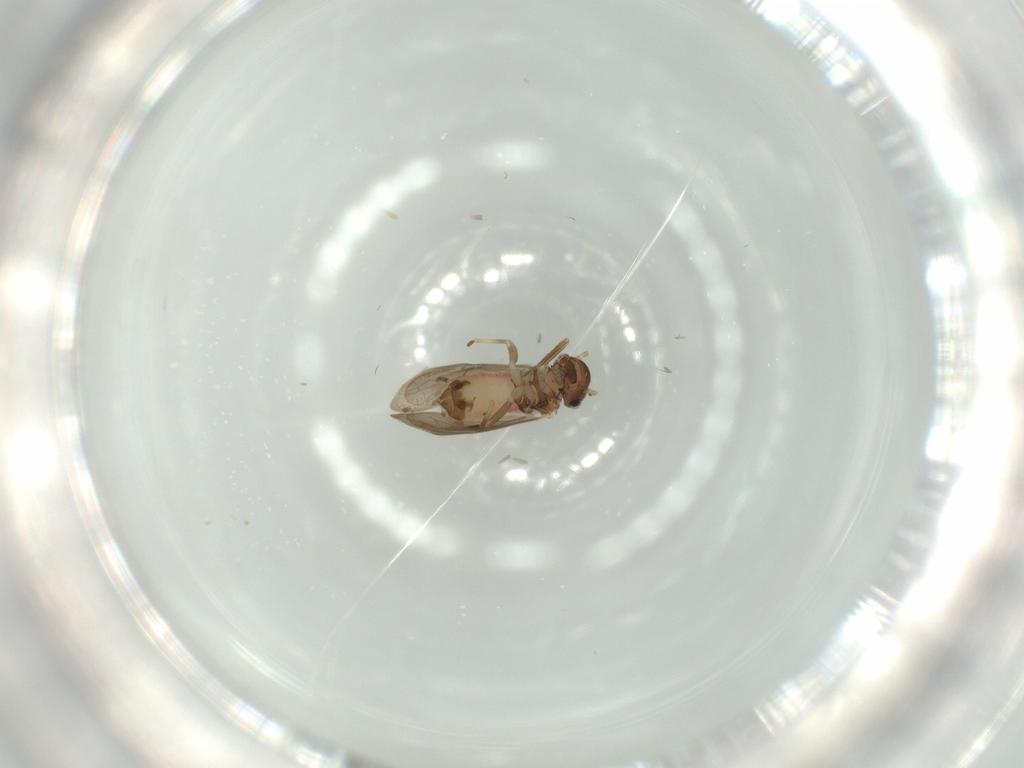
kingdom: Animalia
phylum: Arthropoda
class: Insecta
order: Psocodea
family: Asiopsocidae
